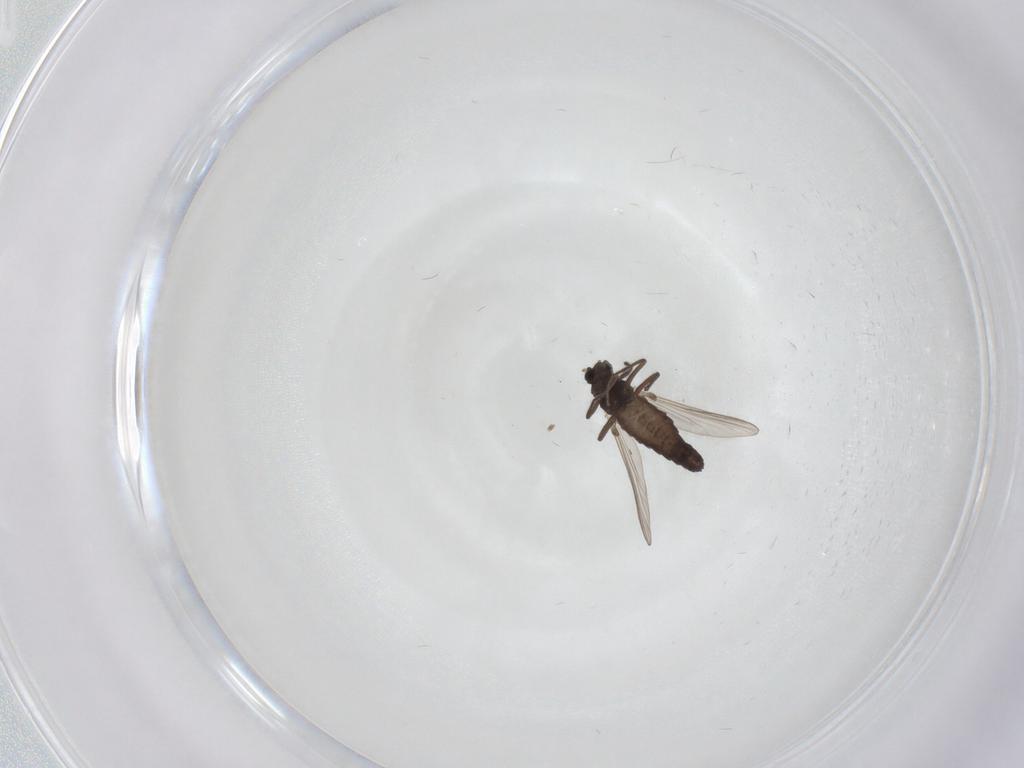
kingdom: Animalia
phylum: Arthropoda
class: Insecta
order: Diptera
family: Chironomidae
